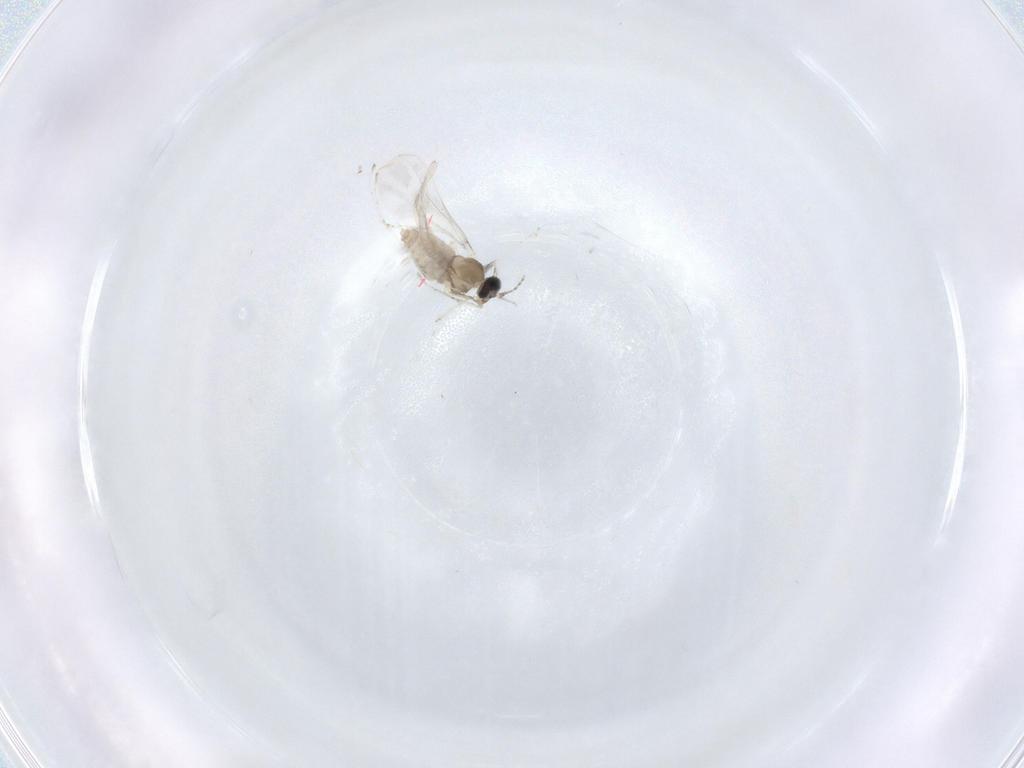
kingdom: Animalia
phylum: Arthropoda
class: Insecta
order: Diptera
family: Cecidomyiidae
